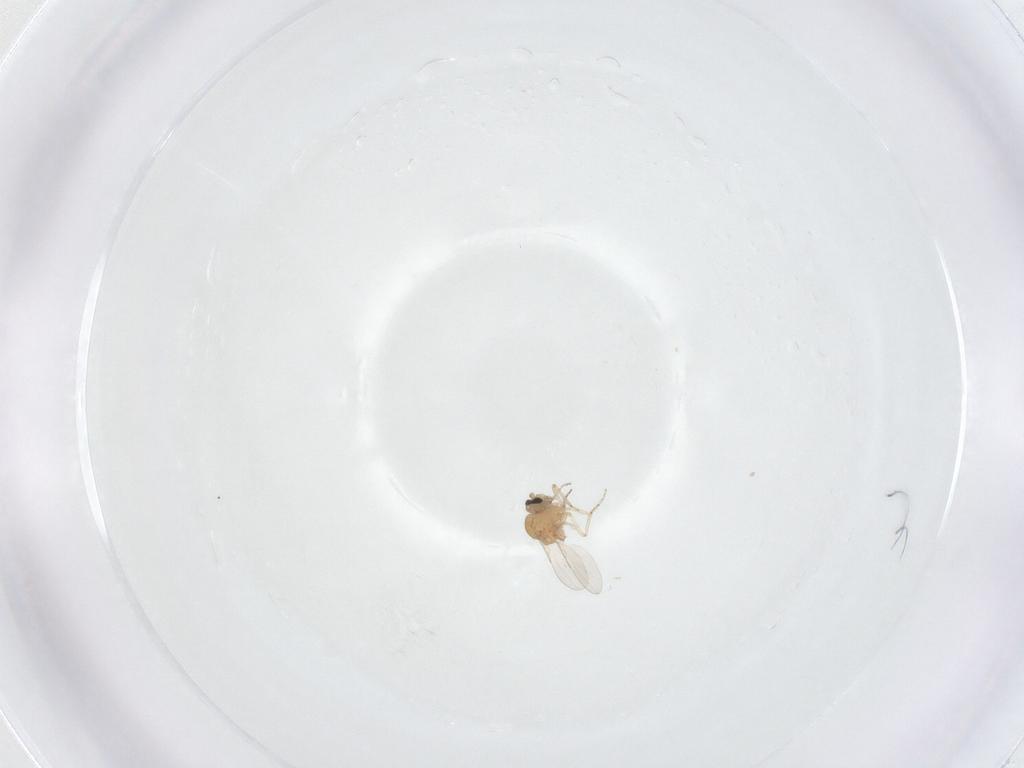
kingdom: Animalia
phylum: Arthropoda
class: Insecta
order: Diptera
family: Ceratopogonidae
